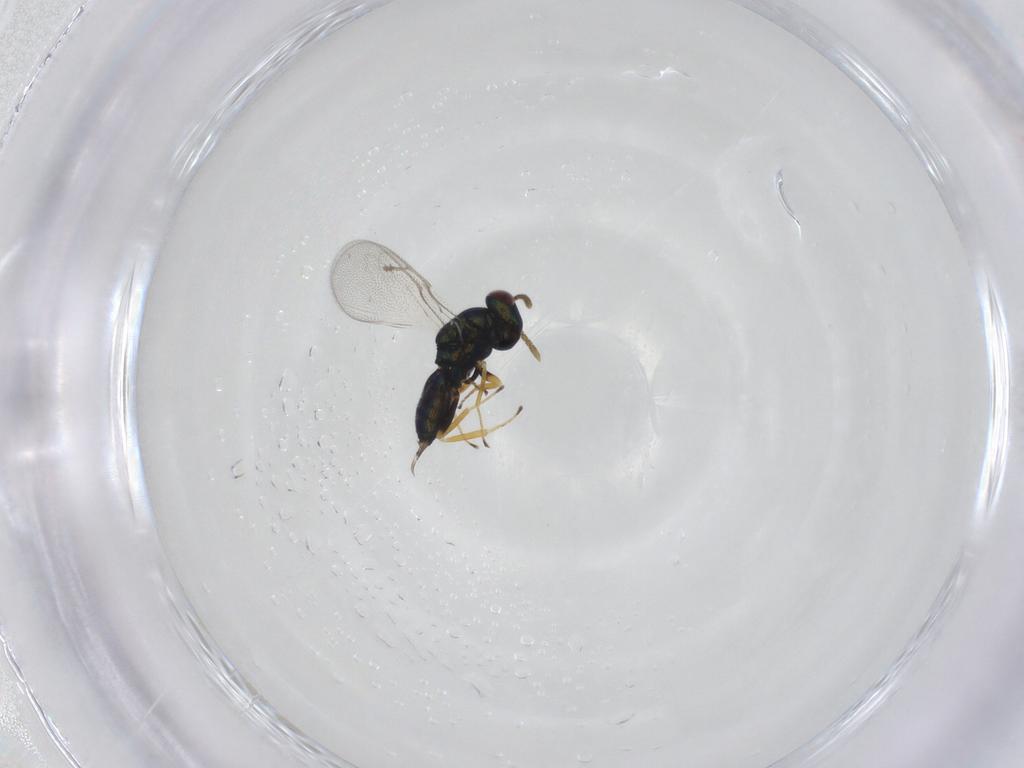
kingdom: Animalia
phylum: Arthropoda
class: Insecta
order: Hymenoptera
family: Pteromalidae
